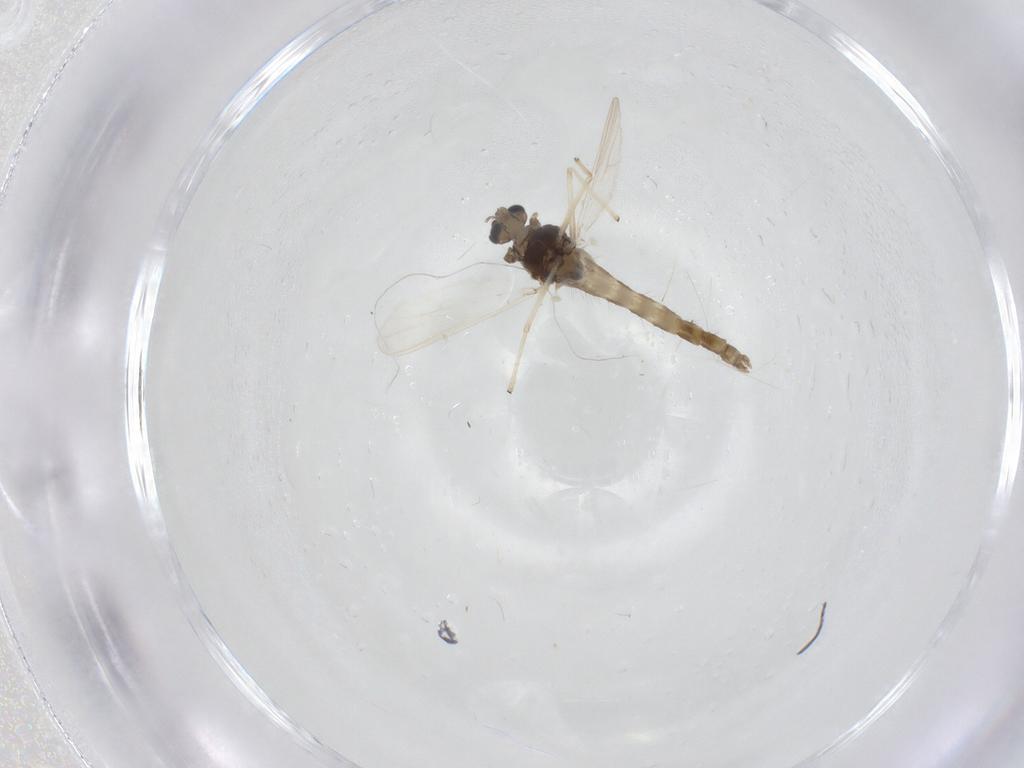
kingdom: Animalia
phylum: Arthropoda
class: Insecta
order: Diptera
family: Chironomidae
